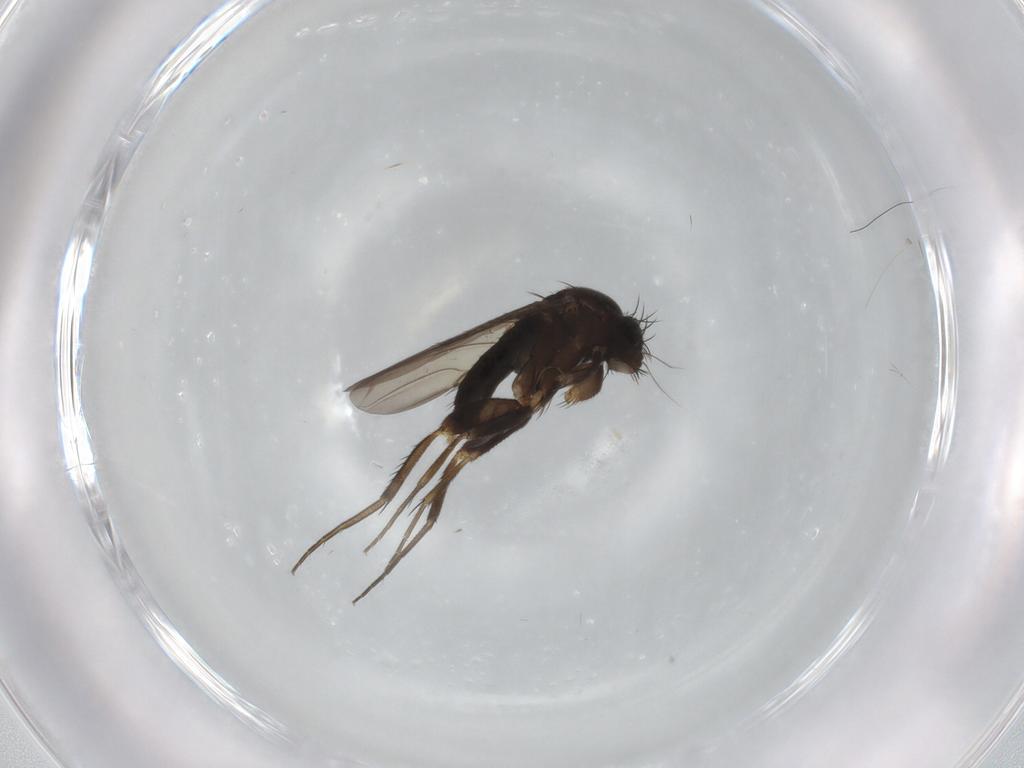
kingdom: Animalia
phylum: Arthropoda
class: Insecta
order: Diptera
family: Phoridae
